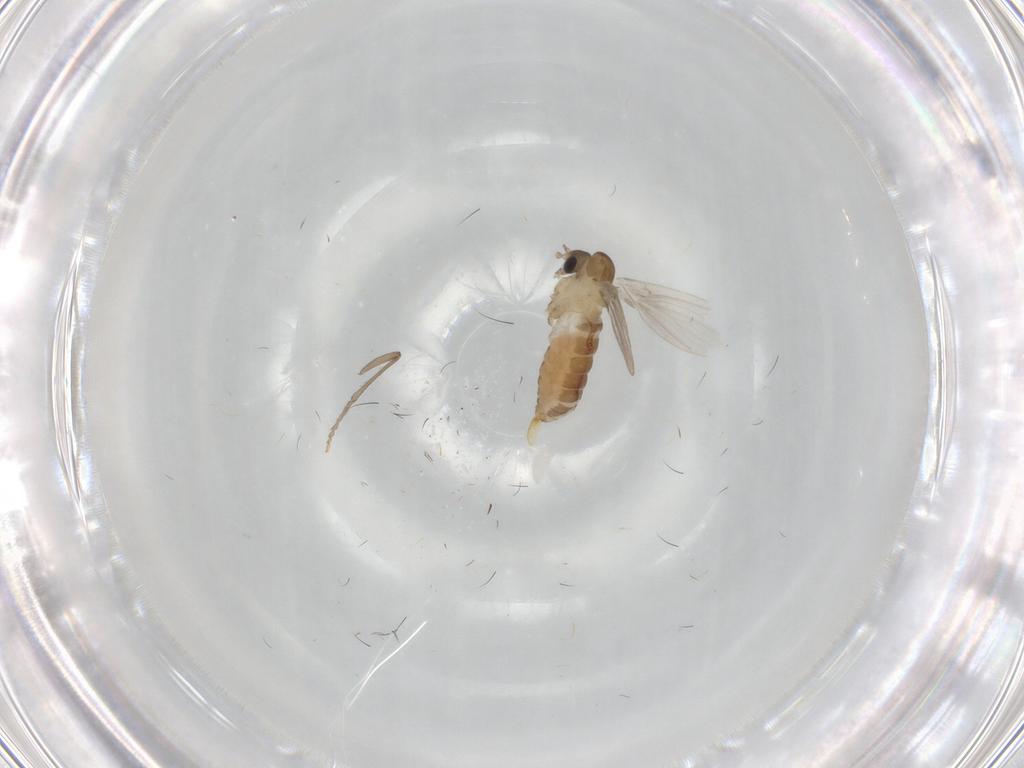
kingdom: Animalia
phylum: Arthropoda
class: Insecta
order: Diptera
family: Psychodidae
